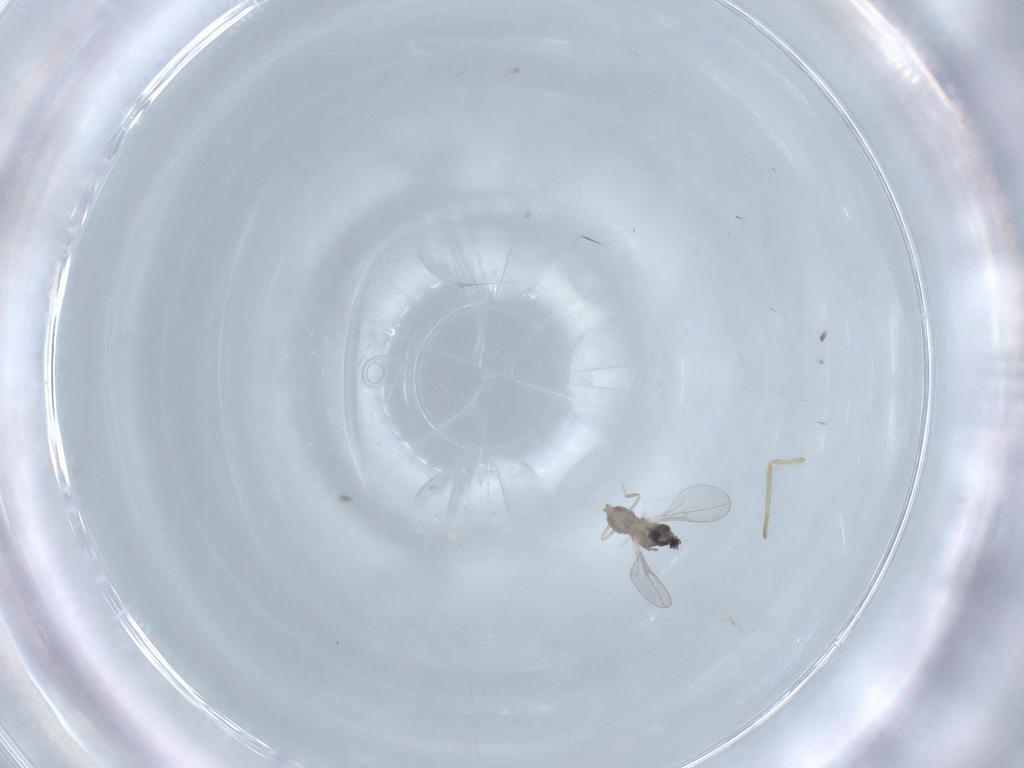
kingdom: Animalia
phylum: Arthropoda
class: Insecta
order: Diptera
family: Cecidomyiidae
